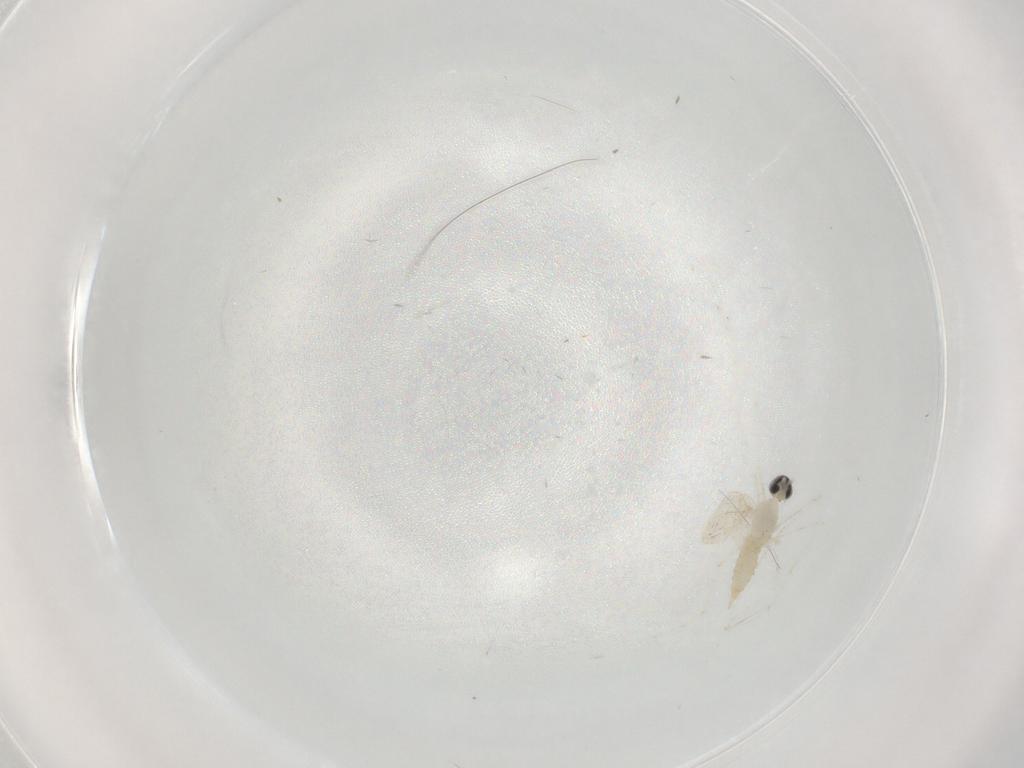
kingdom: Animalia
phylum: Arthropoda
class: Insecta
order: Diptera
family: Cecidomyiidae
